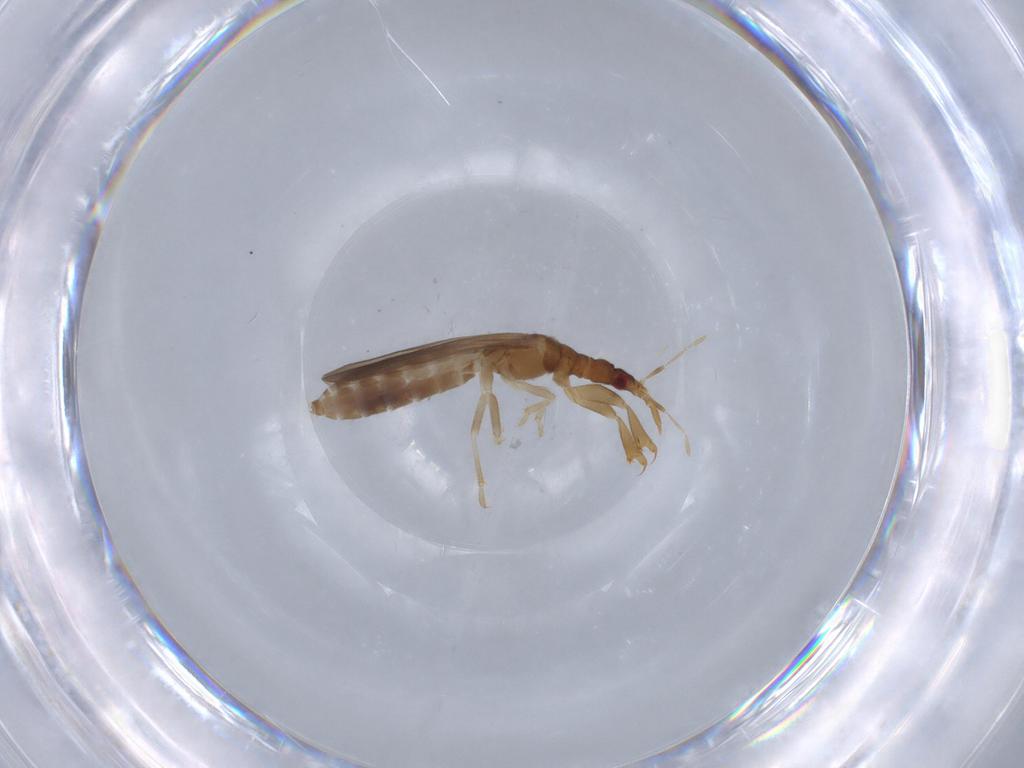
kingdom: Animalia
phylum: Arthropoda
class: Insecta
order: Hemiptera
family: Enicocephalidae
